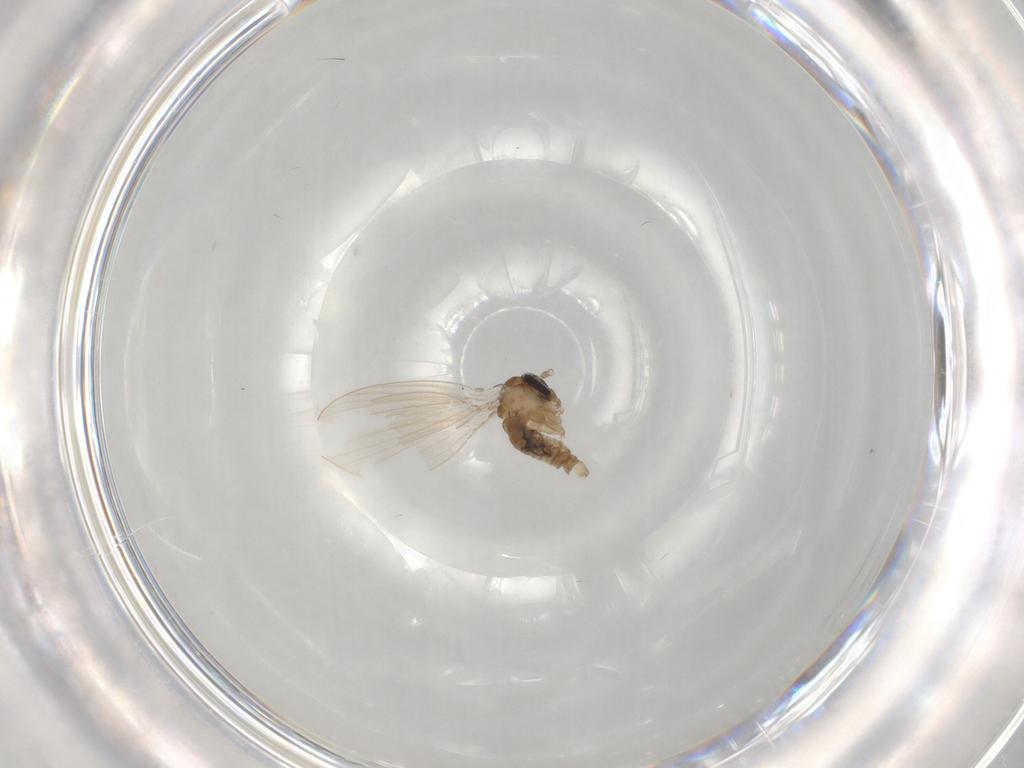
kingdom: Animalia
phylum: Arthropoda
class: Insecta
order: Diptera
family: Psychodidae
